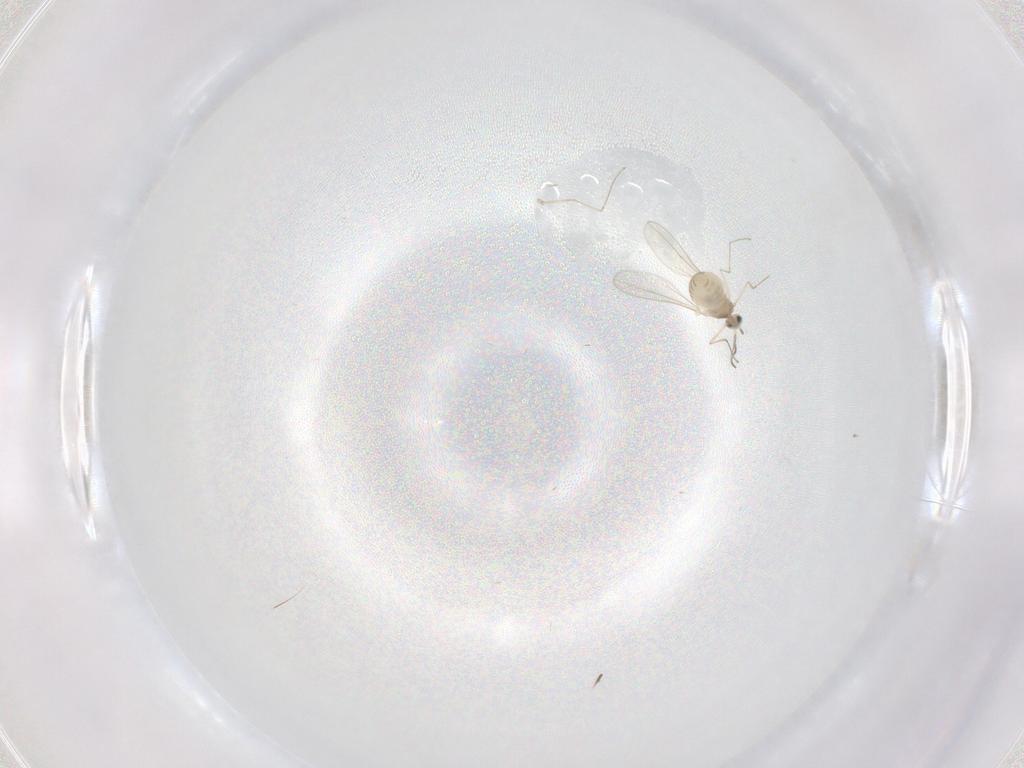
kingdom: Animalia
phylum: Arthropoda
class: Insecta
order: Diptera
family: Cecidomyiidae
